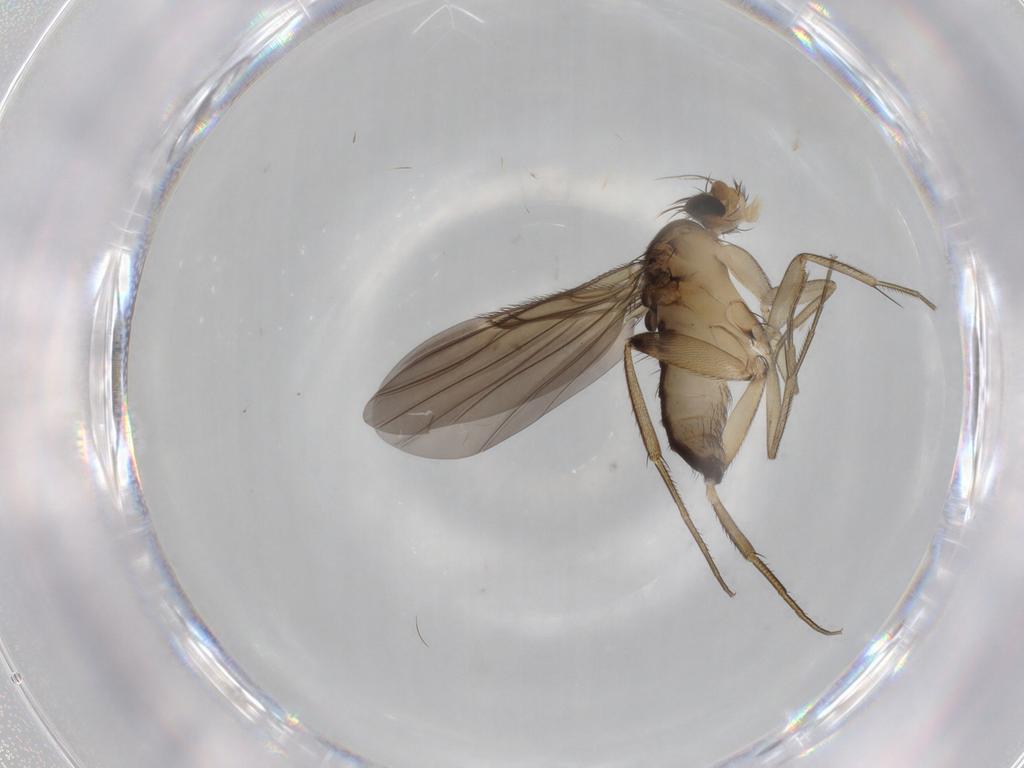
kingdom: Animalia
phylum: Arthropoda
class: Insecta
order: Diptera
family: Phoridae
